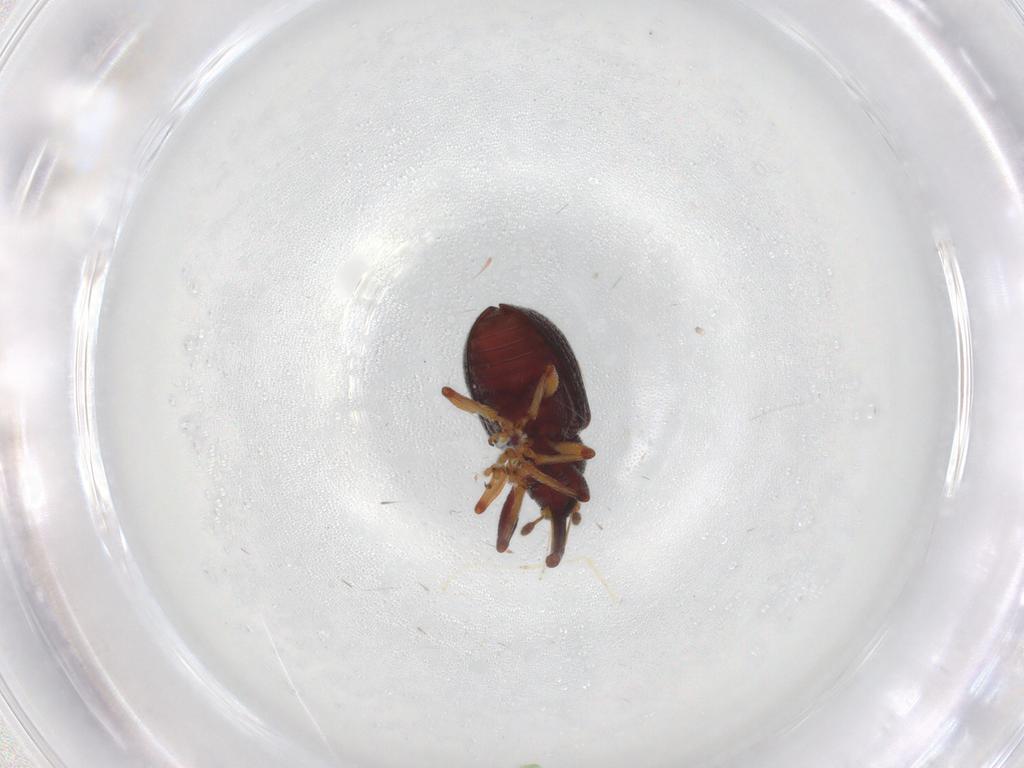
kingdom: Animalia
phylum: Arthropoda
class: Insecta
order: Coleoptera
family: Curculionidae
